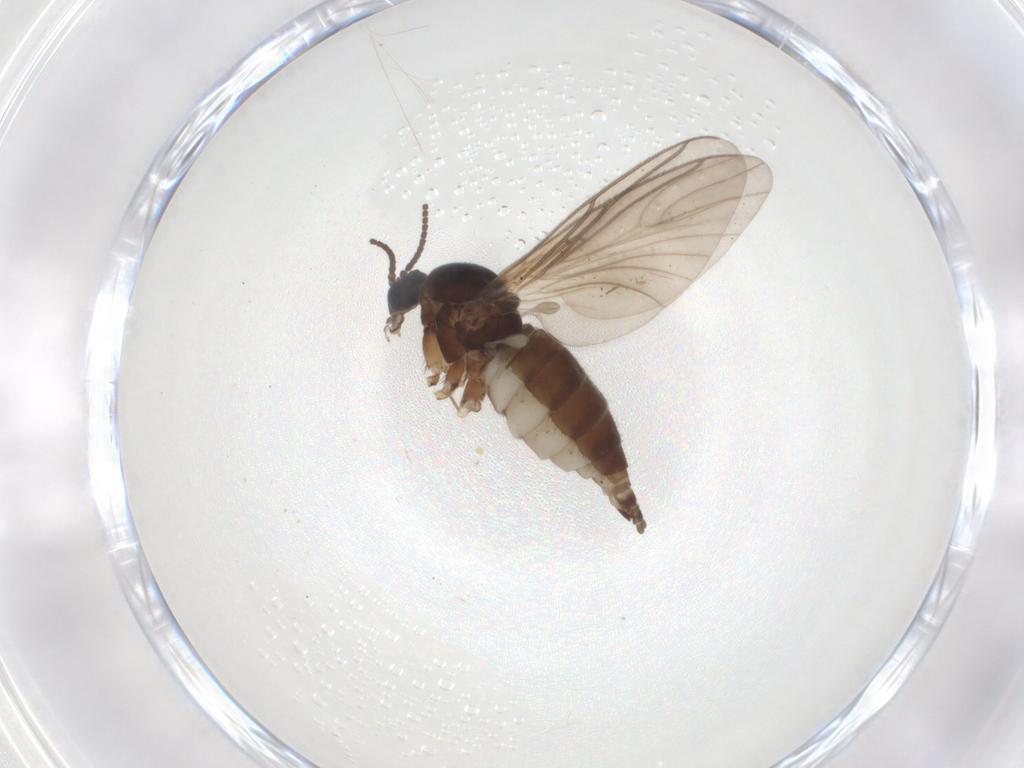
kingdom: Animalia
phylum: Arthropoda
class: Insecta
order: Diptera
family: Sciaridae
